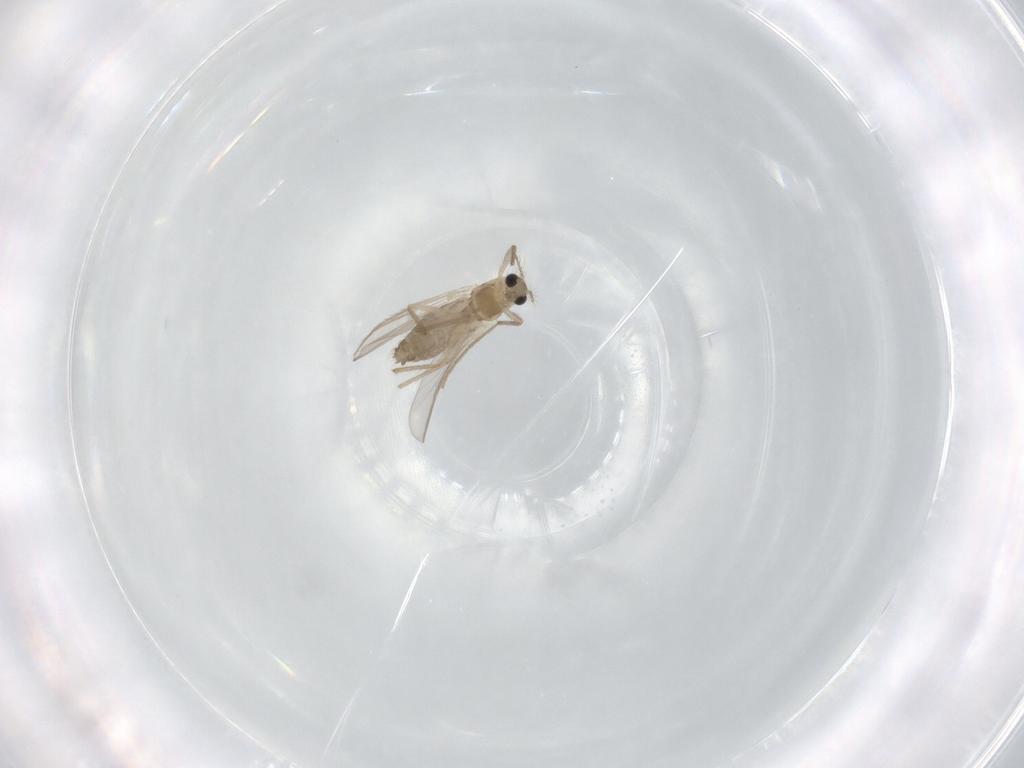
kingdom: Animalia
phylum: Arthropoda
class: Insecta
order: Diptera
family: Chironomidae
